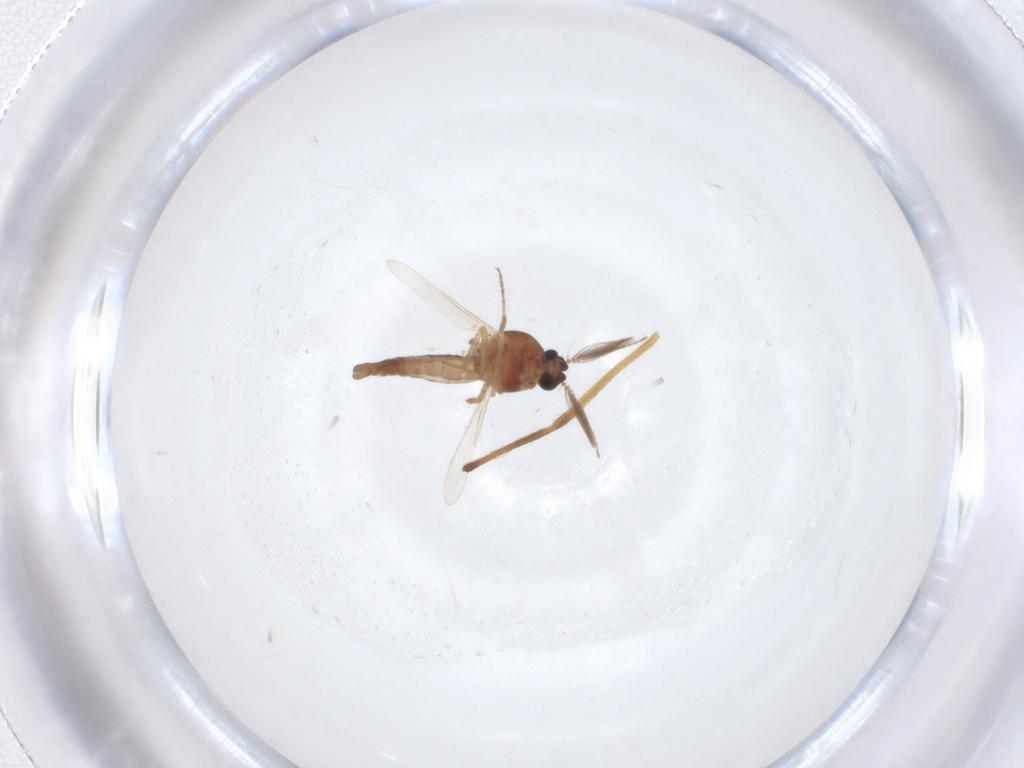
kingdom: Animalia
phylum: Arthropoda
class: Insecta
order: Diptera
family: Ceratopogonidae
